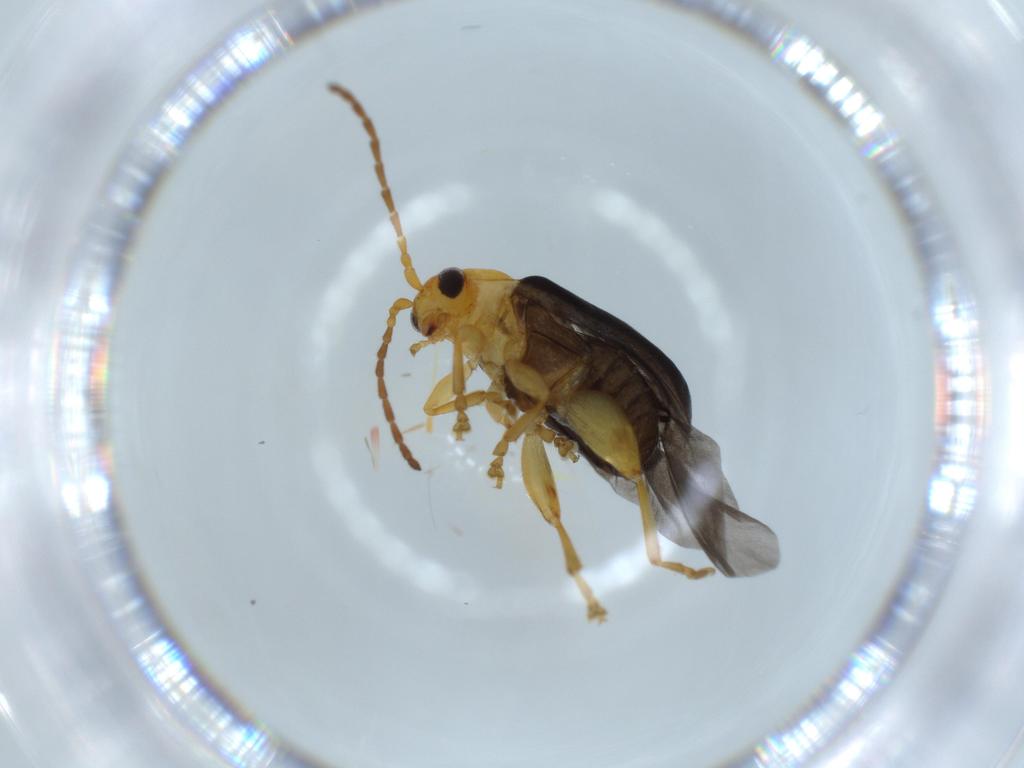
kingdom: Animalia
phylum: Arthropoda
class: Insecta
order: Coleoptera
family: Chrysomelidae
